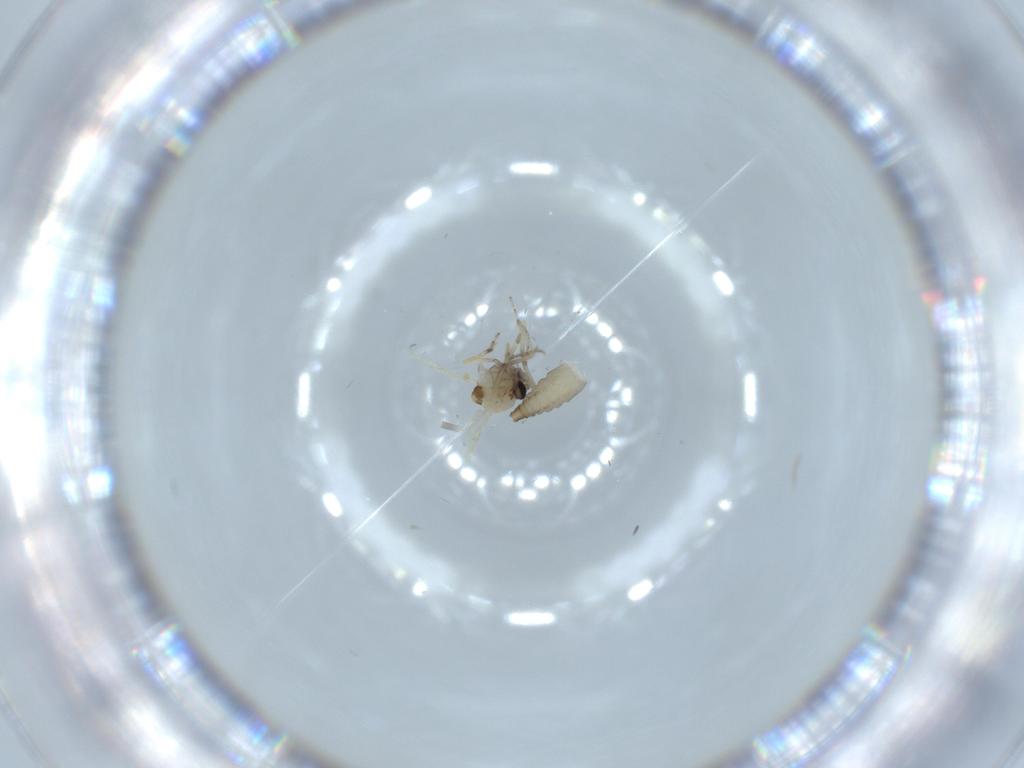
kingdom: Animalia
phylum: Arthropoda
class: Insecta
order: Diptera
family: Ceratopogonidae
